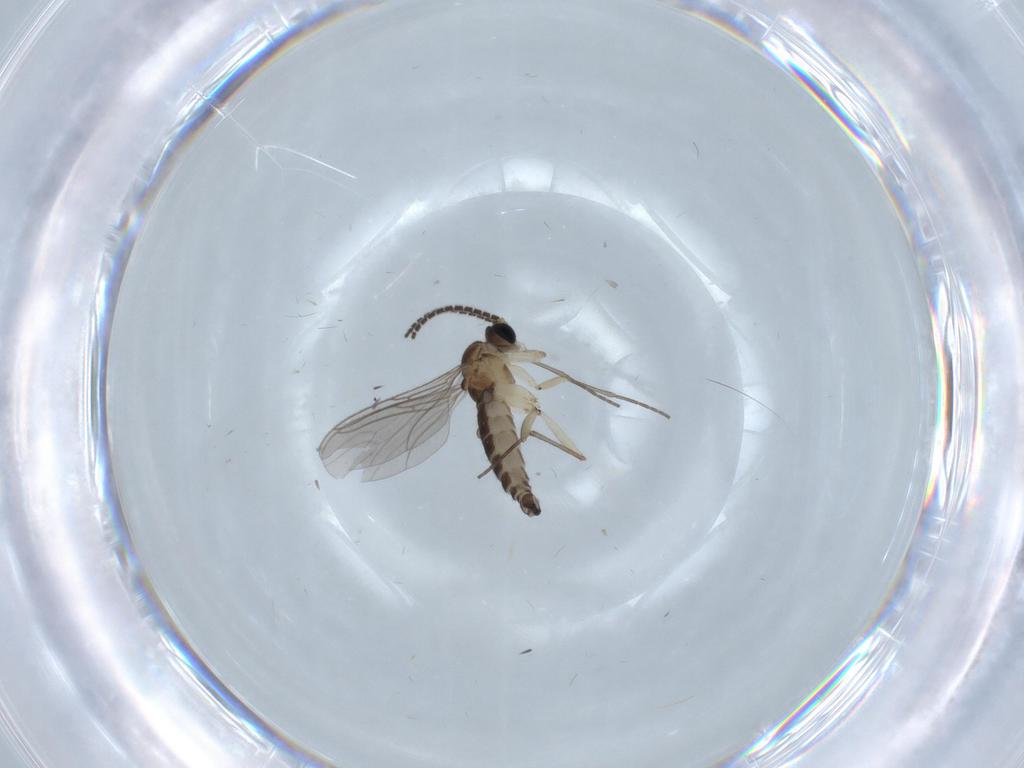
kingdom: Animalia
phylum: Arthropoda
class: Insecta
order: Diptera
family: Sciaridae
